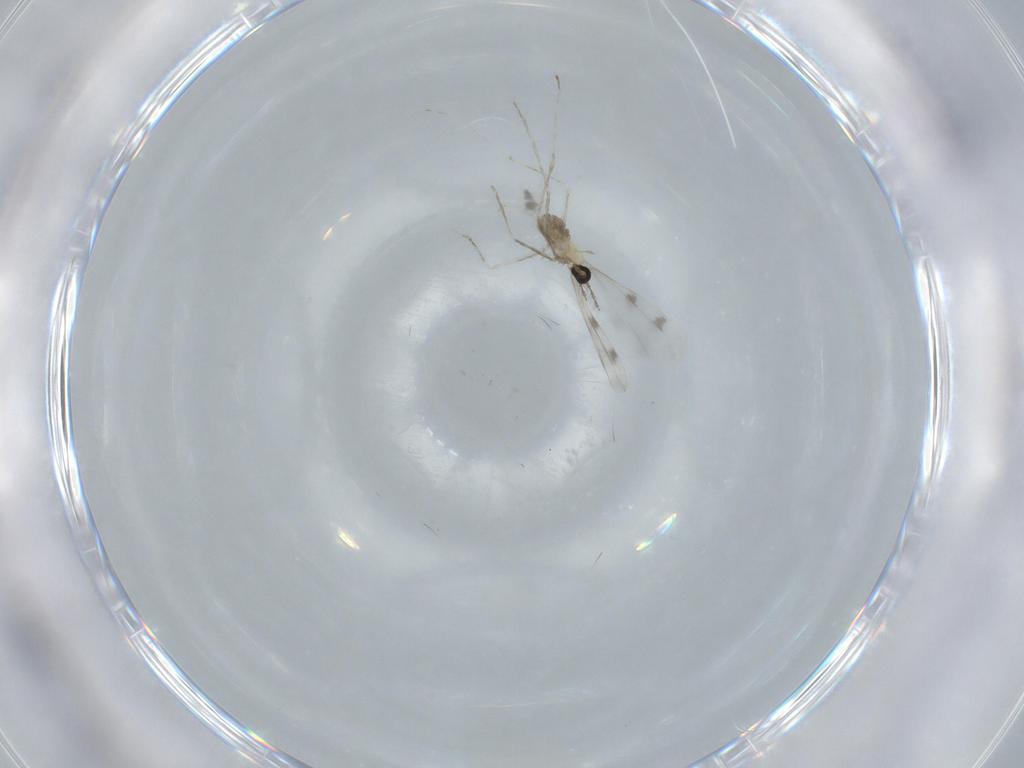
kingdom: Animalia
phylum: Arthropoda
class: Insecta
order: Diptera
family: Cecidomyiidae
